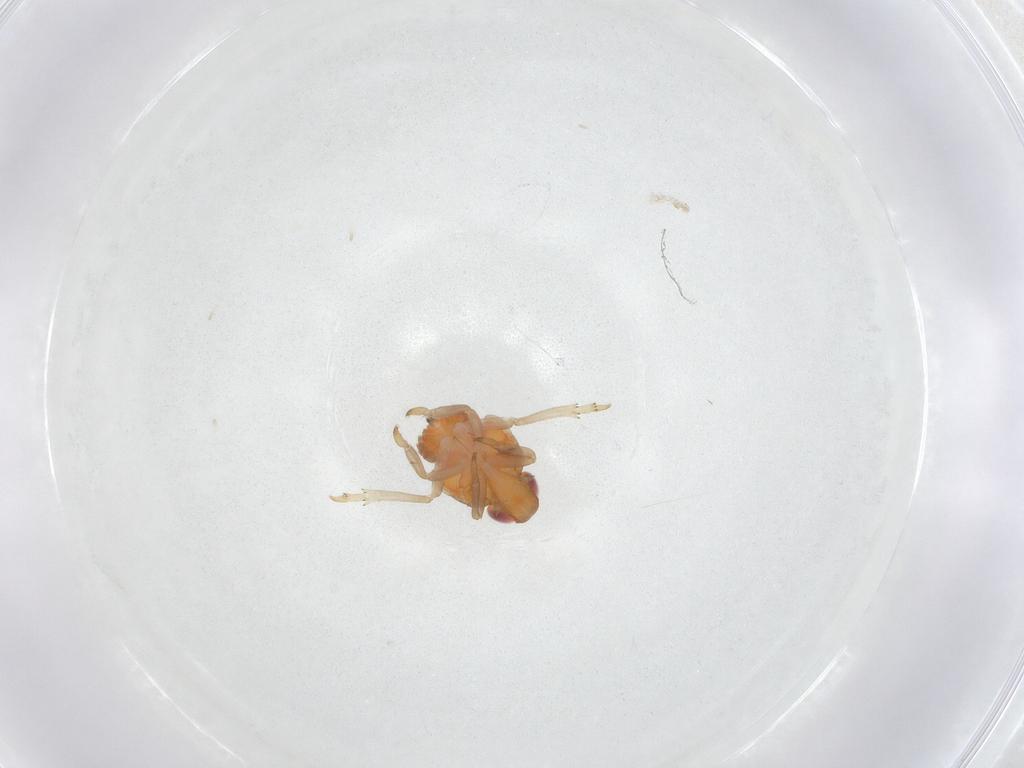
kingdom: Animalia
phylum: Arthropoda
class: Insecta
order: Hemiptera
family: Fulgoroidea_incertae_sedis
